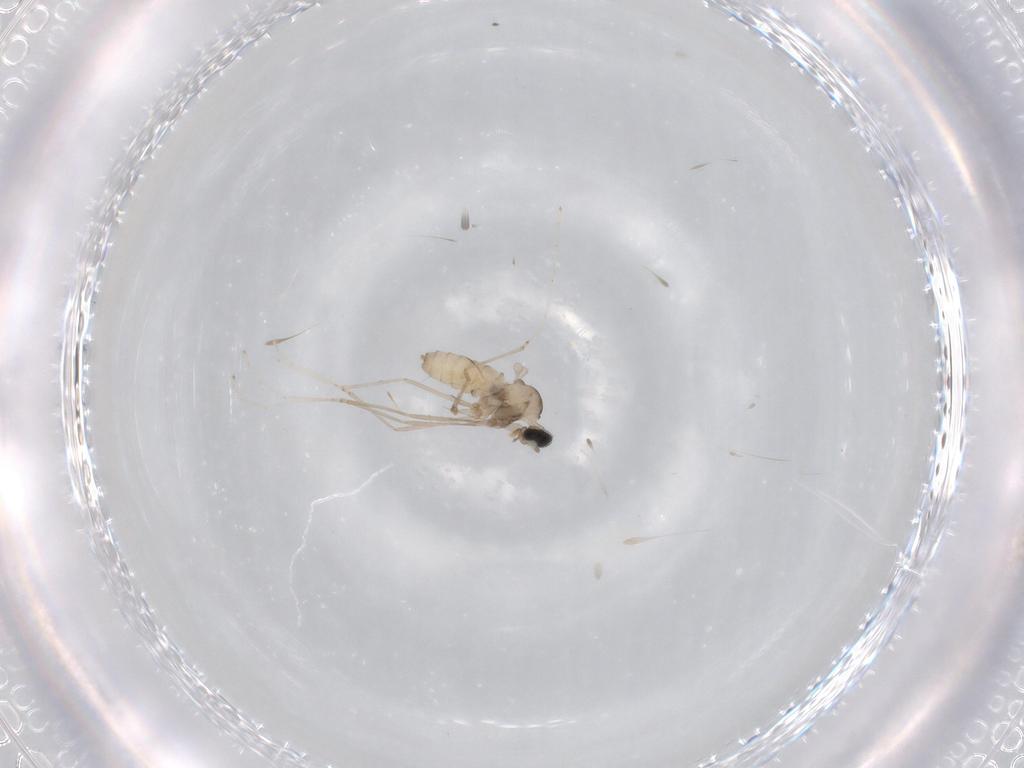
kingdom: Animalia
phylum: Arthropoda
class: Insecta
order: Diptera
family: Cecidomyiidae
